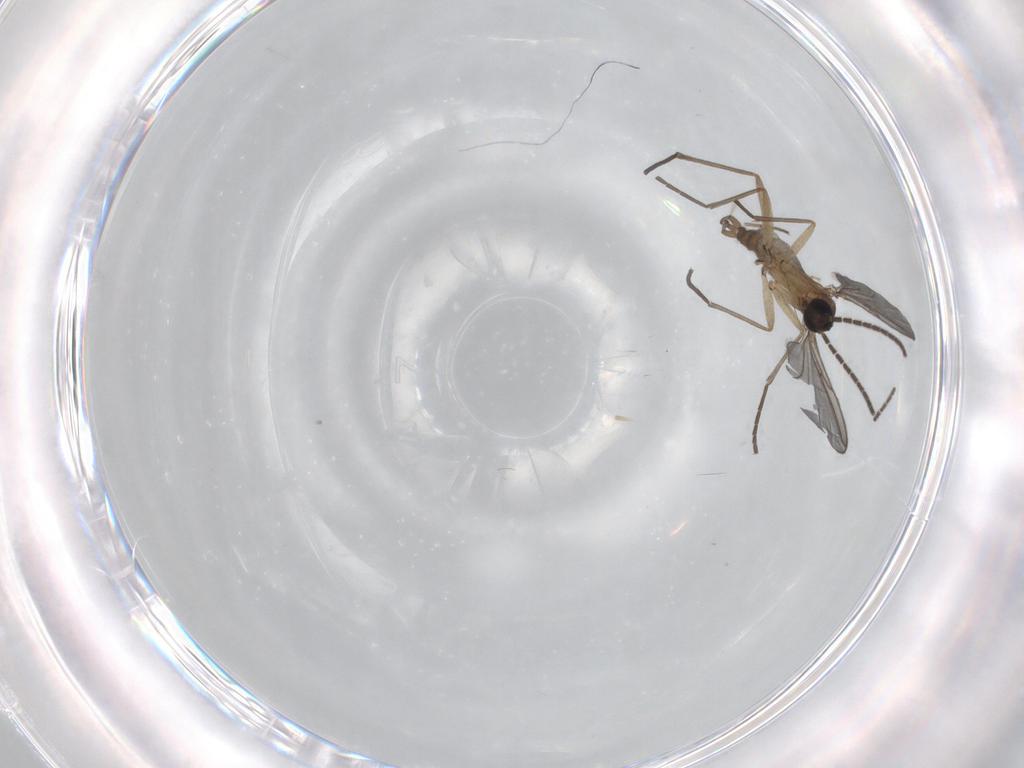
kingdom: Animalia
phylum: Arthropoda
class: Insecta
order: Diptera
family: Sciaridae
